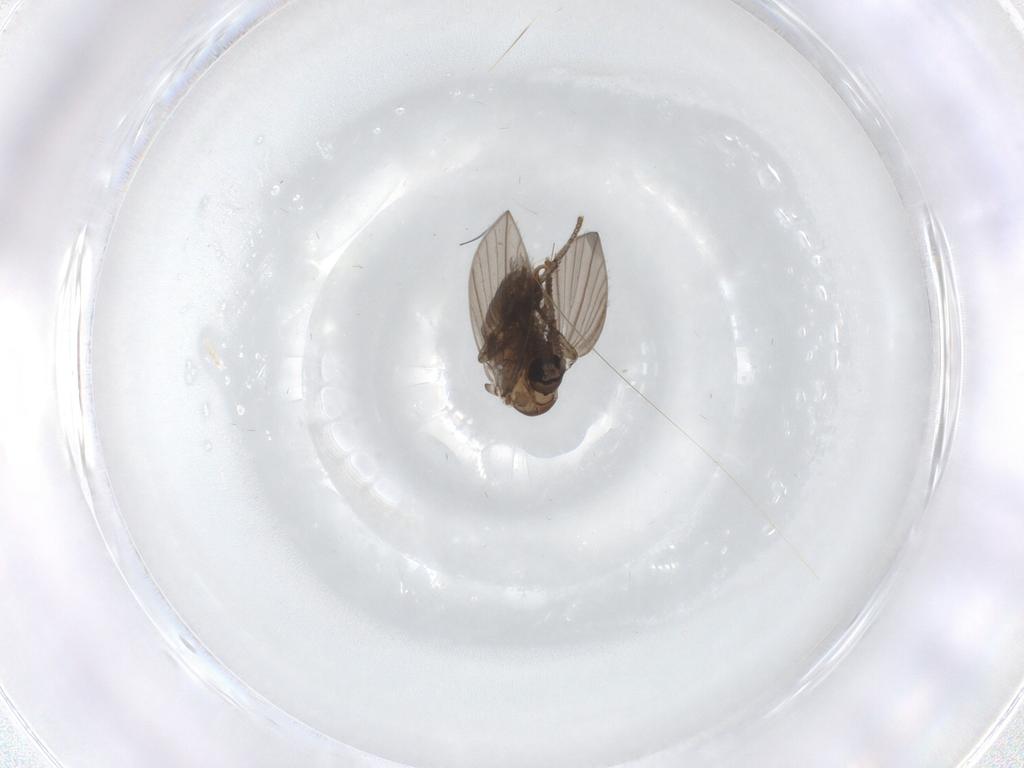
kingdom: Animalia
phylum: Arthropoda
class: Insecta
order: Diptera
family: Psychodidae
